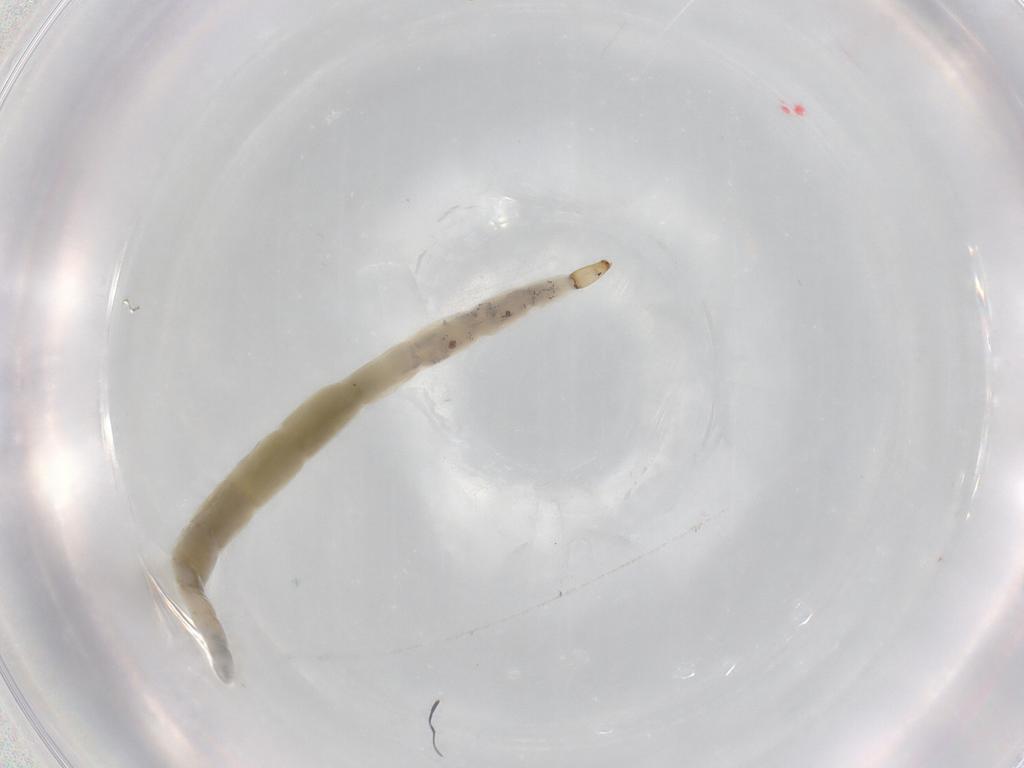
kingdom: Animalia
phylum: Arthropoda
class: Insecta
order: Diptera
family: Ceratopogonidae
